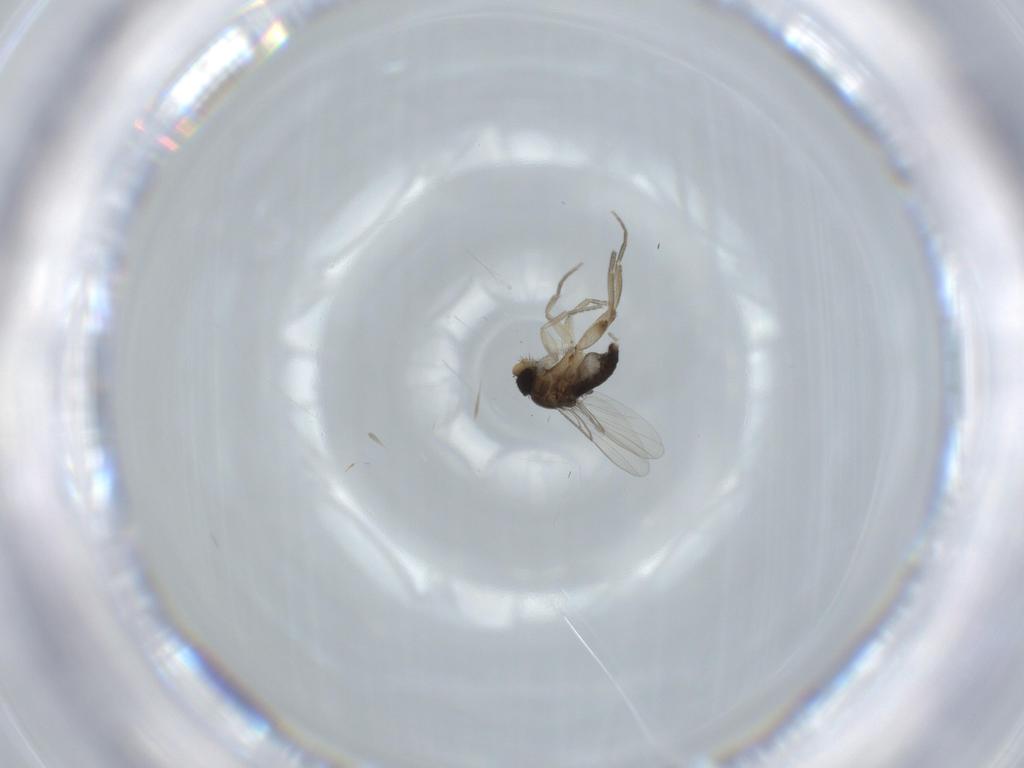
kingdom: Animalia
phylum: Arthropoda
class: Insecta
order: Diptera
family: Phoridae
